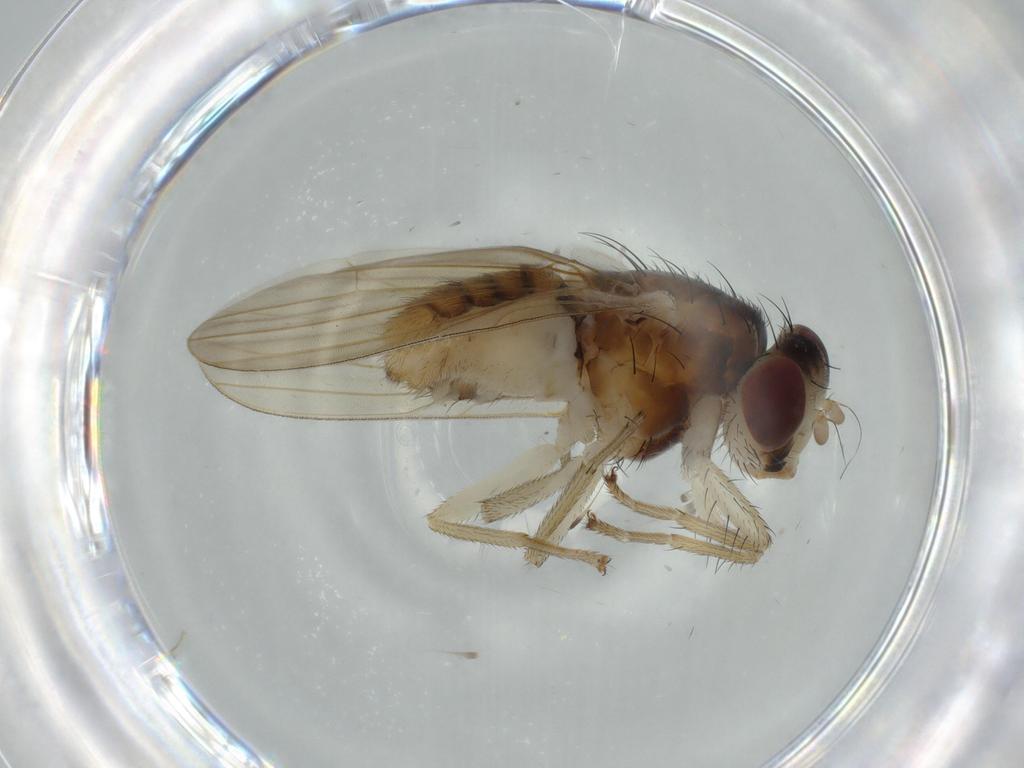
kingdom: Animalia
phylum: Arthropoda
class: Insecta
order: Diptera
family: Lauxaniidae
